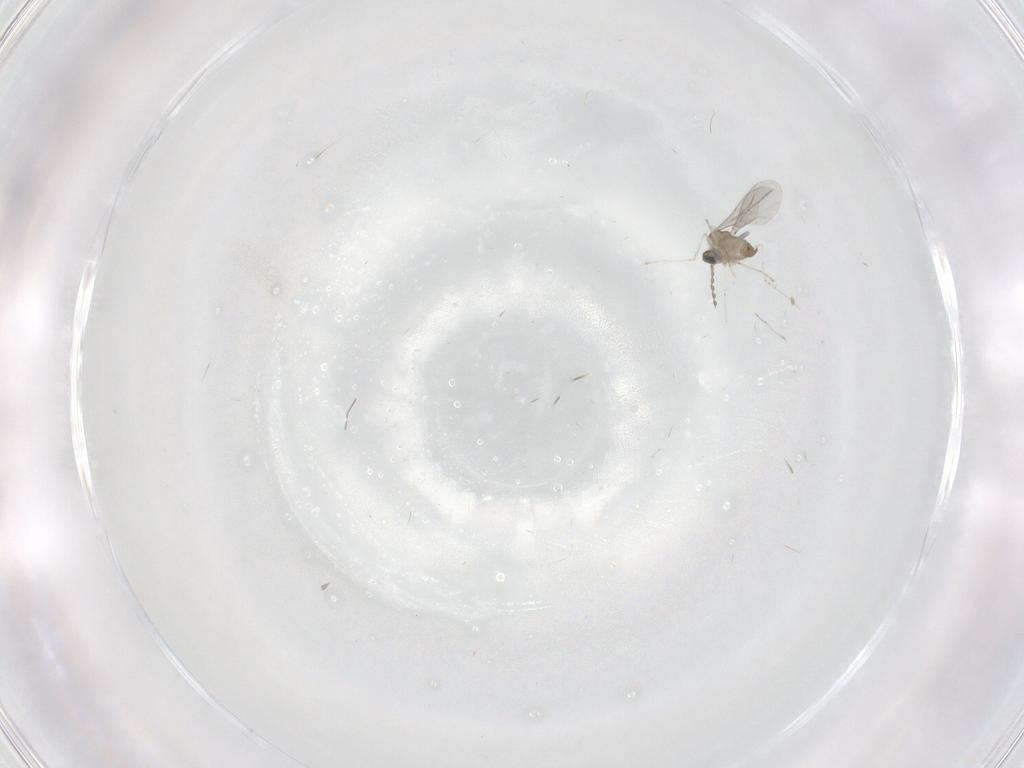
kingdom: Animalia
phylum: Arthropoda
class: Insecta
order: Diptera
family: Cecidomyiidae
